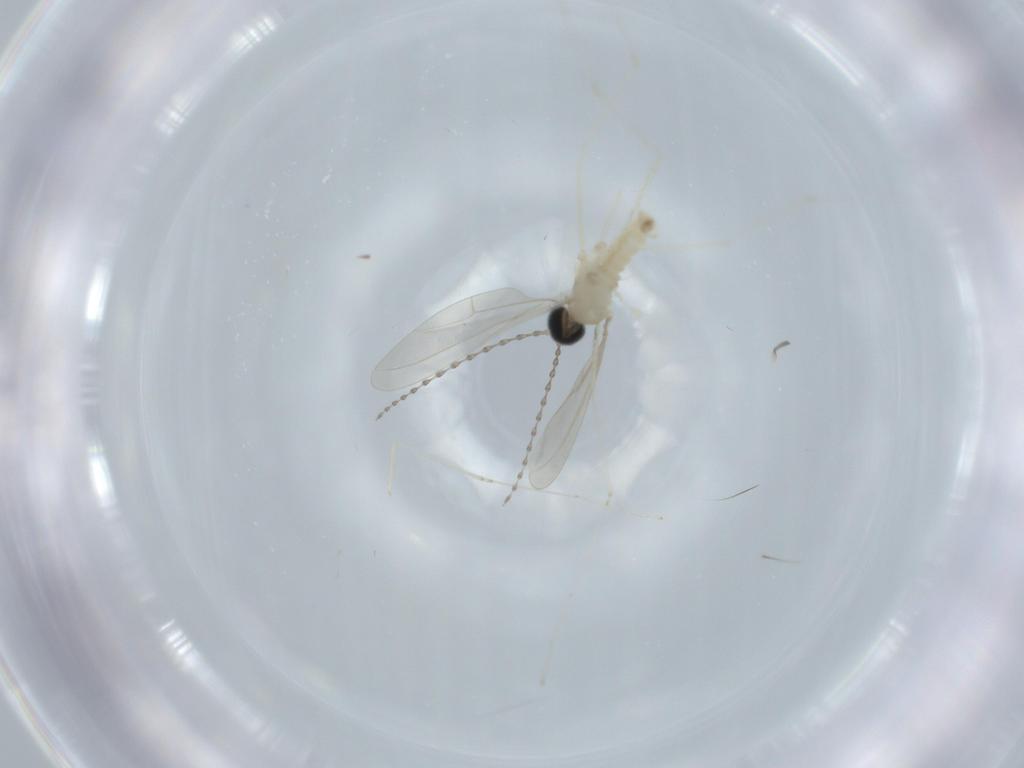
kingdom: Animalia
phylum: Arthropoda
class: Insecta
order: Diptera
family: Cecidomyiidae
